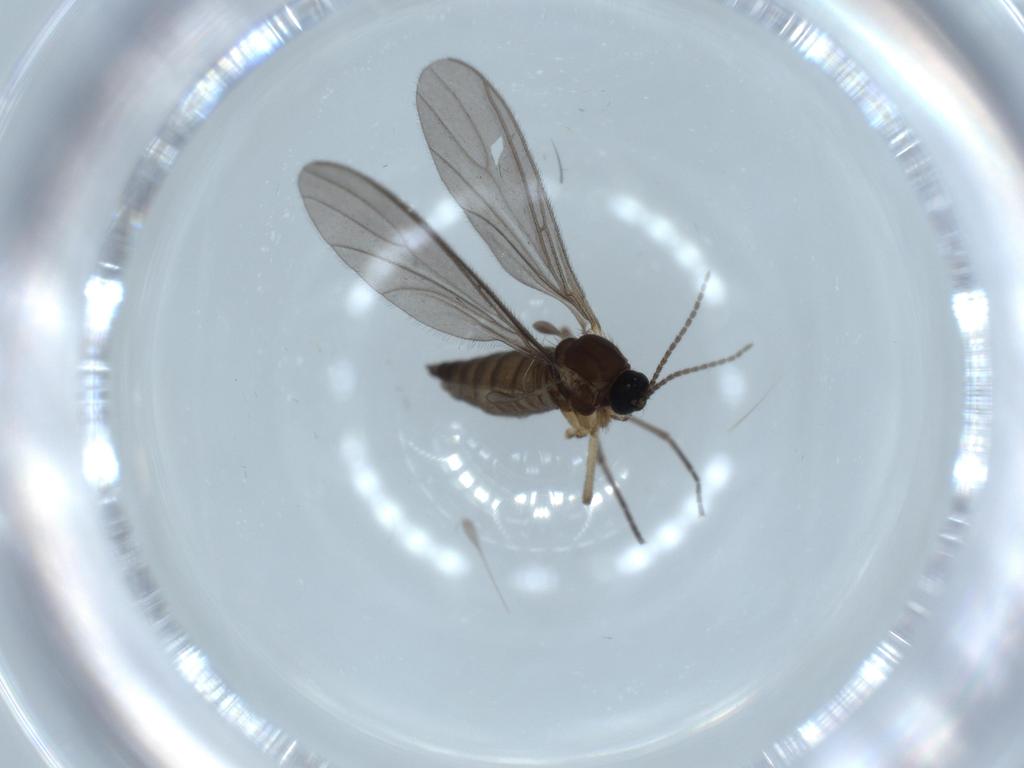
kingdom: Animalia
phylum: Arthropoda
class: Insecta
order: Diptera
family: Sciaridae
